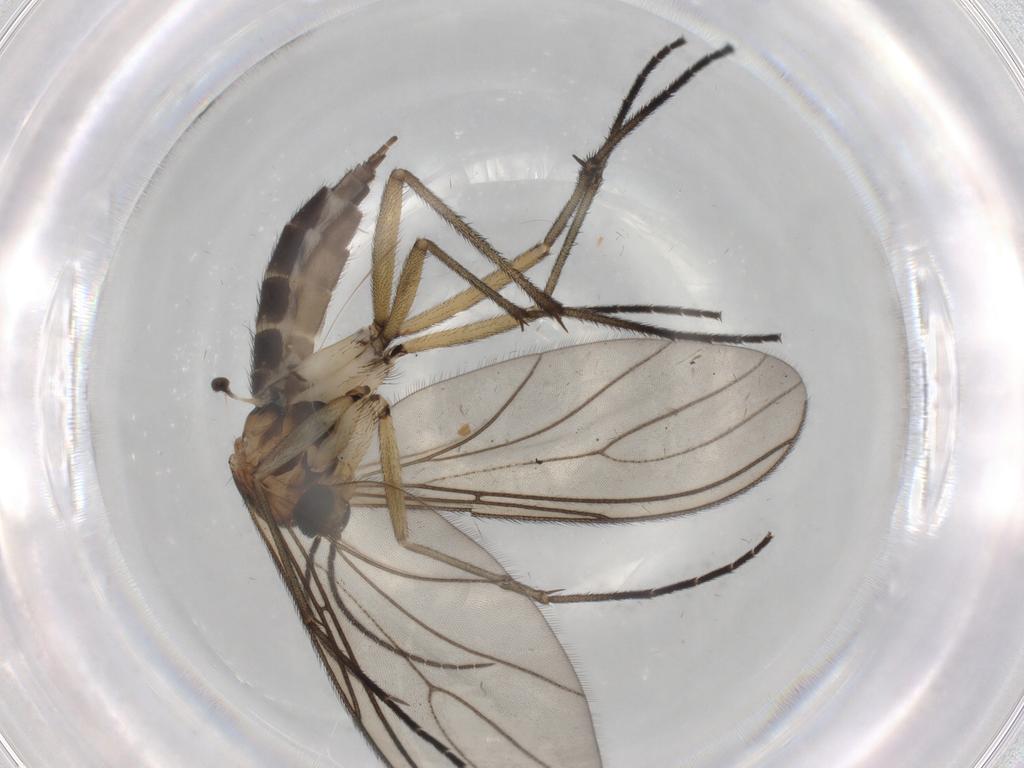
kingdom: Animalia
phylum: Arthropoda
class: Insecta
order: Diptera
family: Sciaridae
